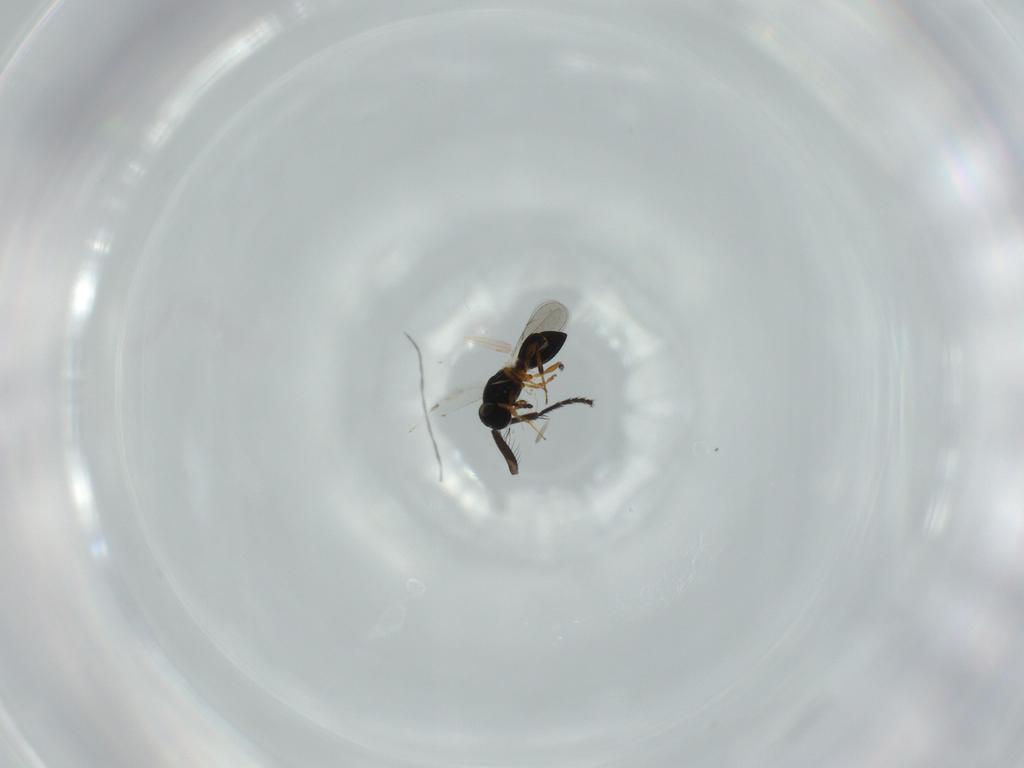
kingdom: Animalia
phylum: Arthropoda
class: Insecta
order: Hymenoptera
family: Platygastridae
